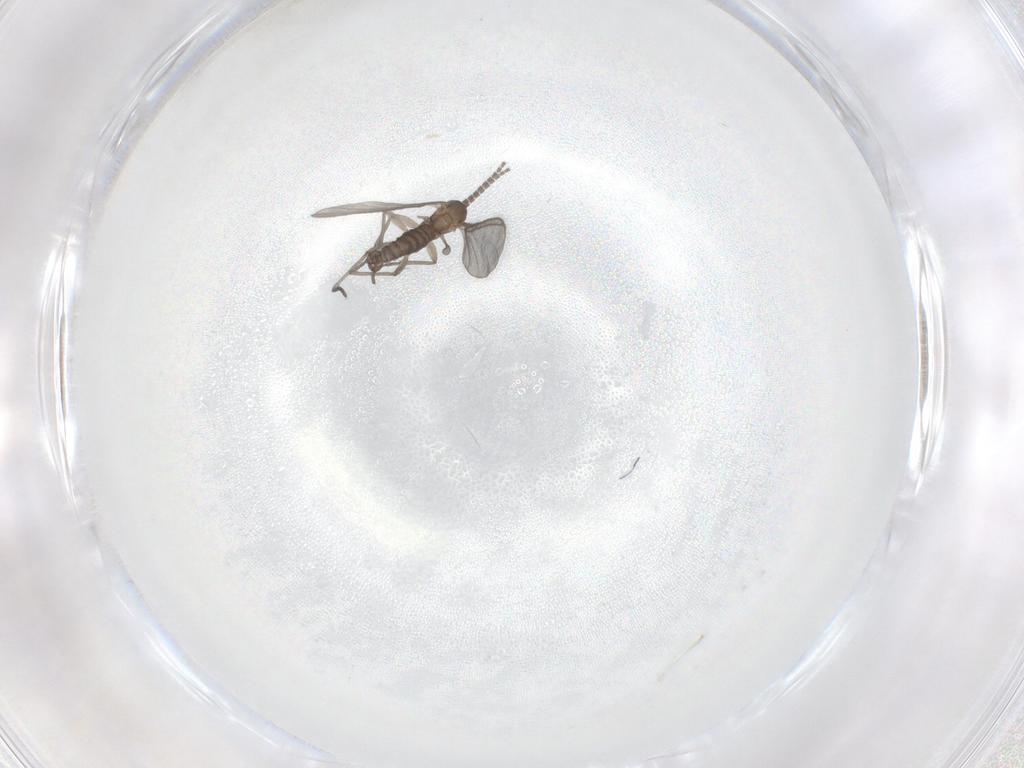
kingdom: Animalia
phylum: Arthropoda
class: Insecta
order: Diptera
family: Sciaridae
